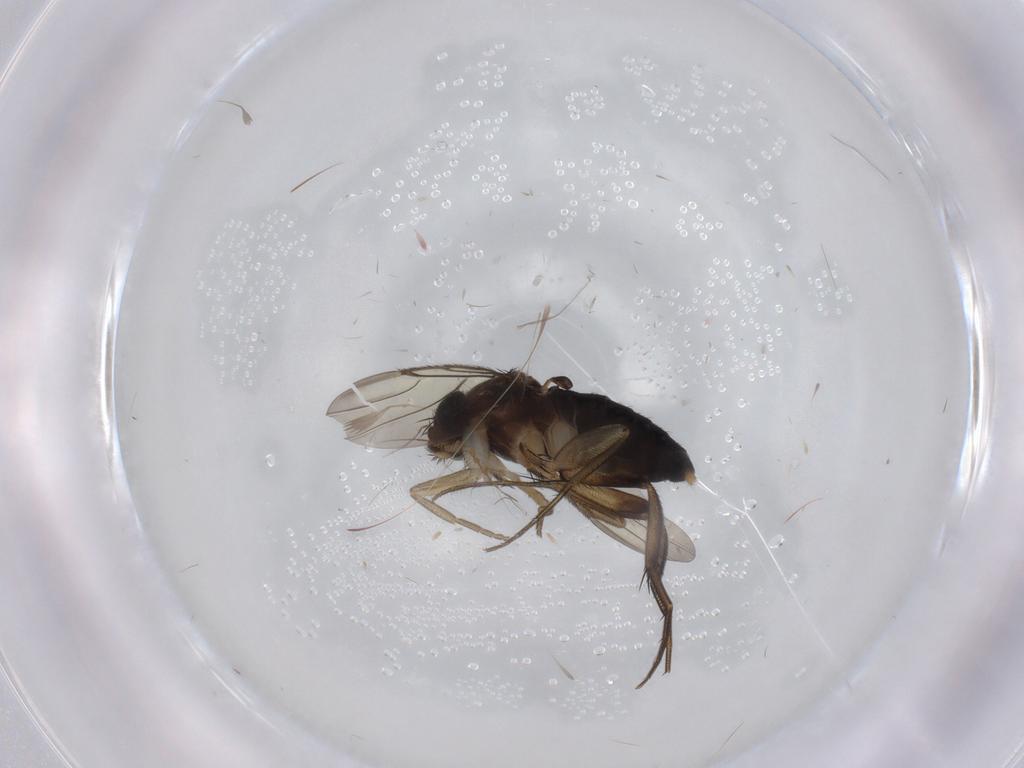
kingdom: Animalia
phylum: Arthropoda
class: Insecta
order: Diptera
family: Phoridae
